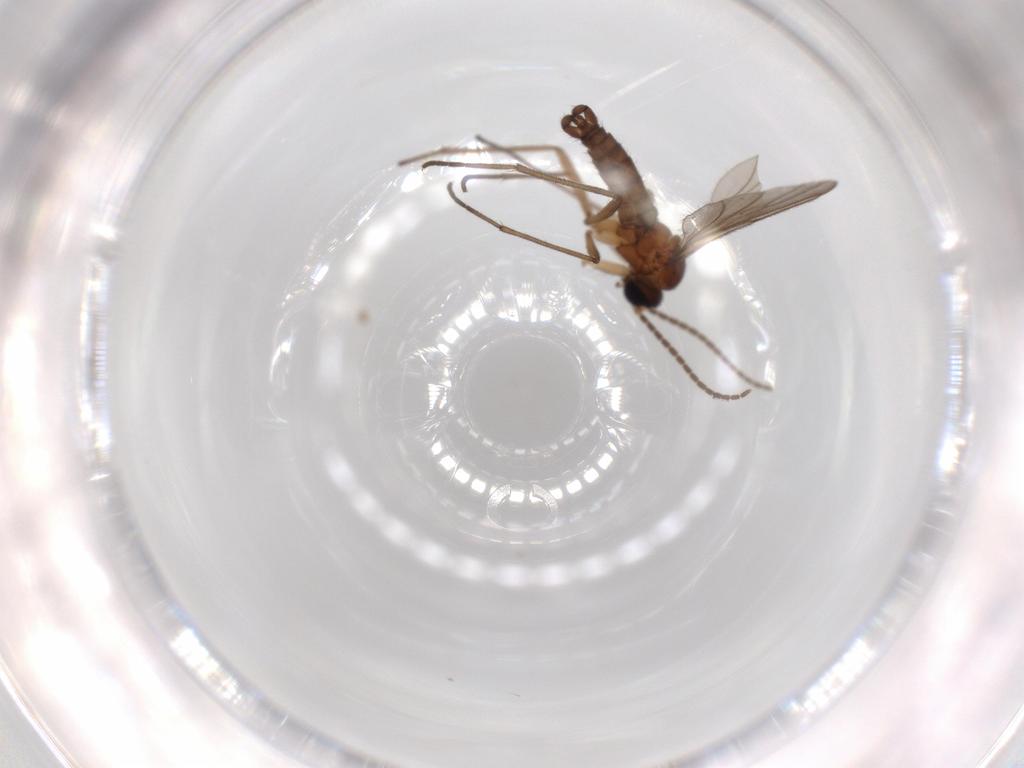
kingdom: Animalia
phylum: Arthropoda
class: Insecta
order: Diptera
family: Sciaridae
